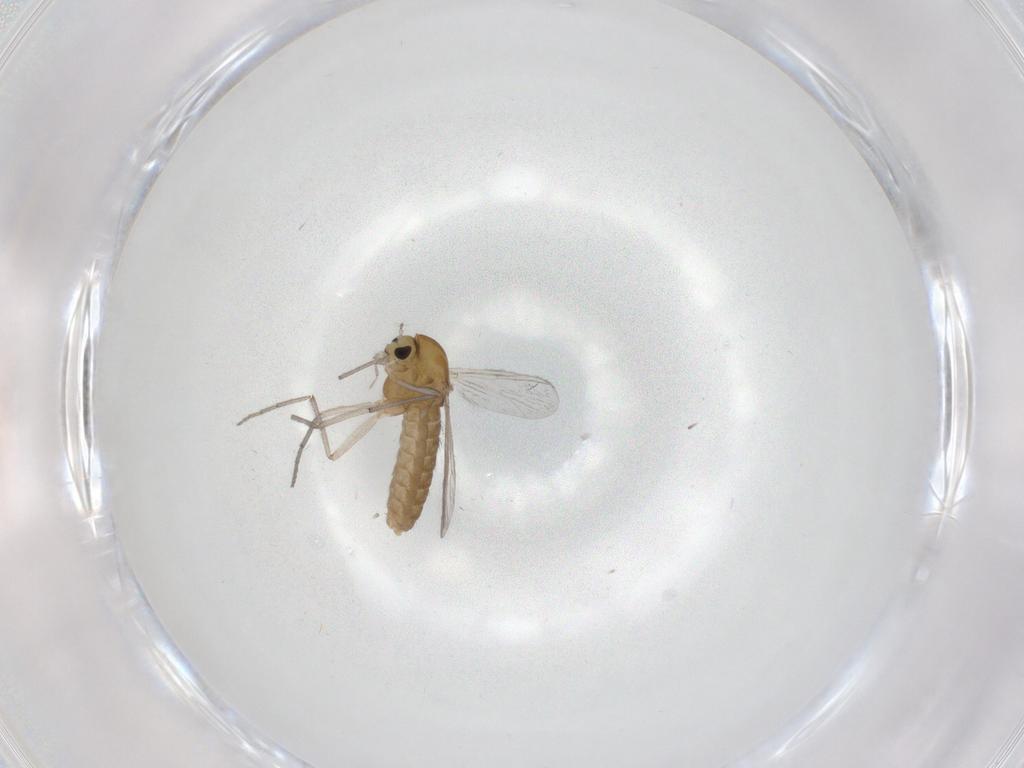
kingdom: Animalia
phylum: Arthropoda
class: Insecta
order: Diptera
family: Chironomidae
